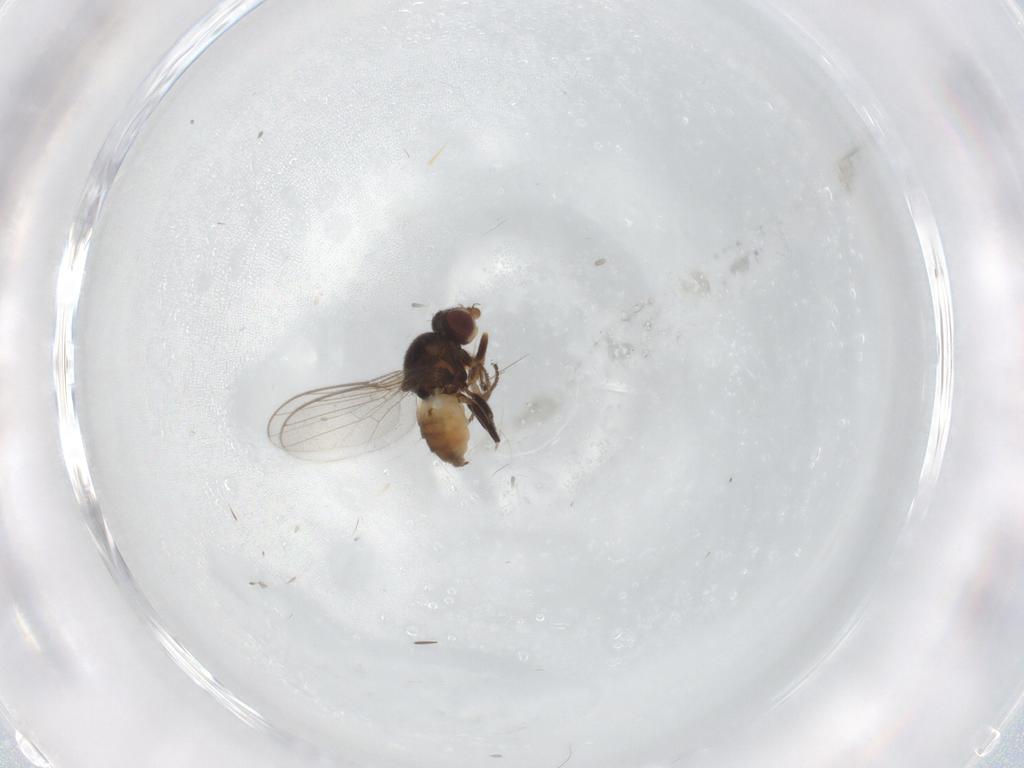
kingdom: Animalia
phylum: Arthropoda
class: Insecta
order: Diptera
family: Chloropidae
